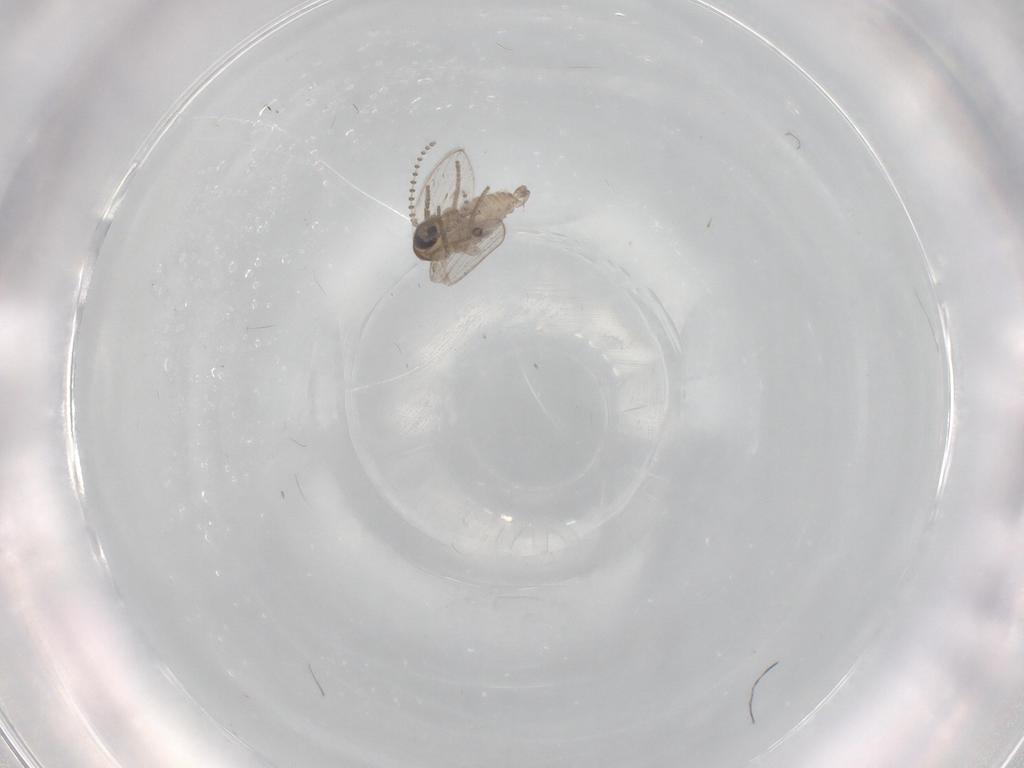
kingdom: Animalia
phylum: Arthropoda
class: Insecta
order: Diptera
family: Psychodidae
